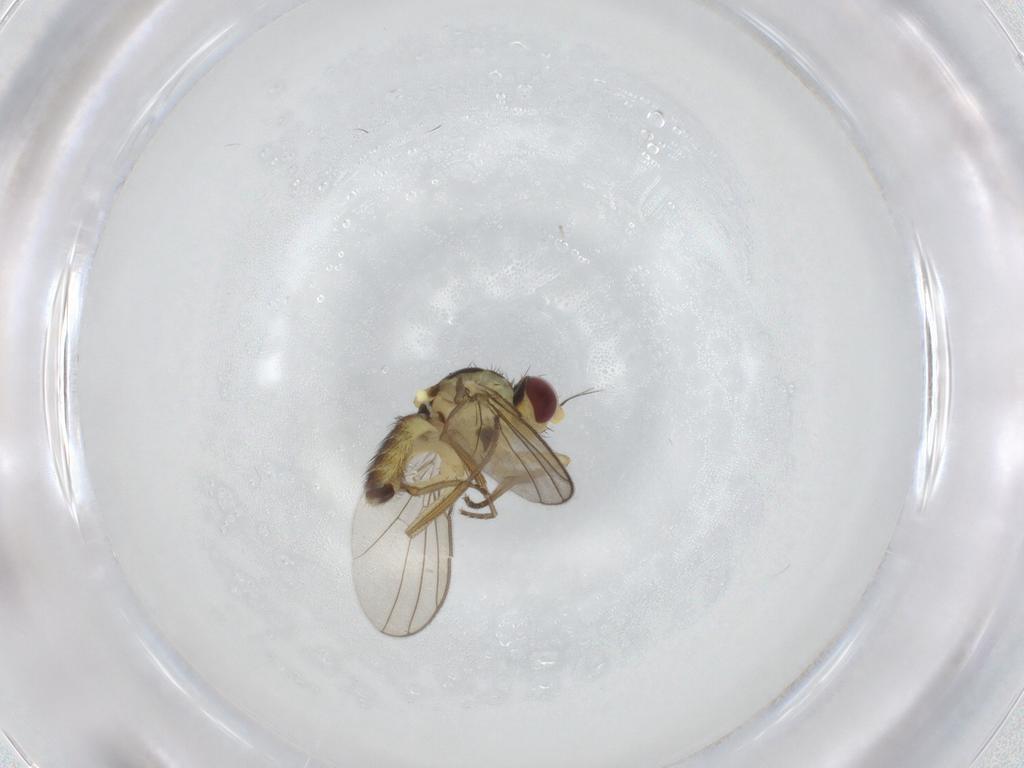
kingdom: Animalia
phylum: Arthropoda
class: Insecta
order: Diptera
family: Agromyzidae
